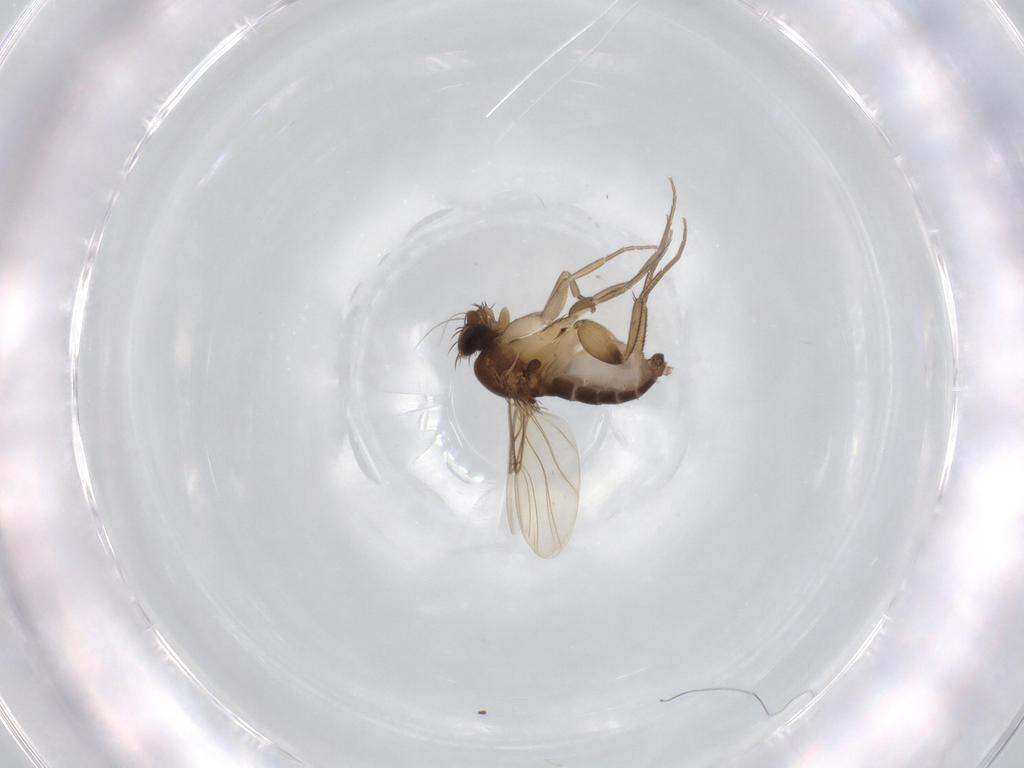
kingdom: Animalia
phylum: Arthropoda
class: Insecta
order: Diptera
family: Phoridae
